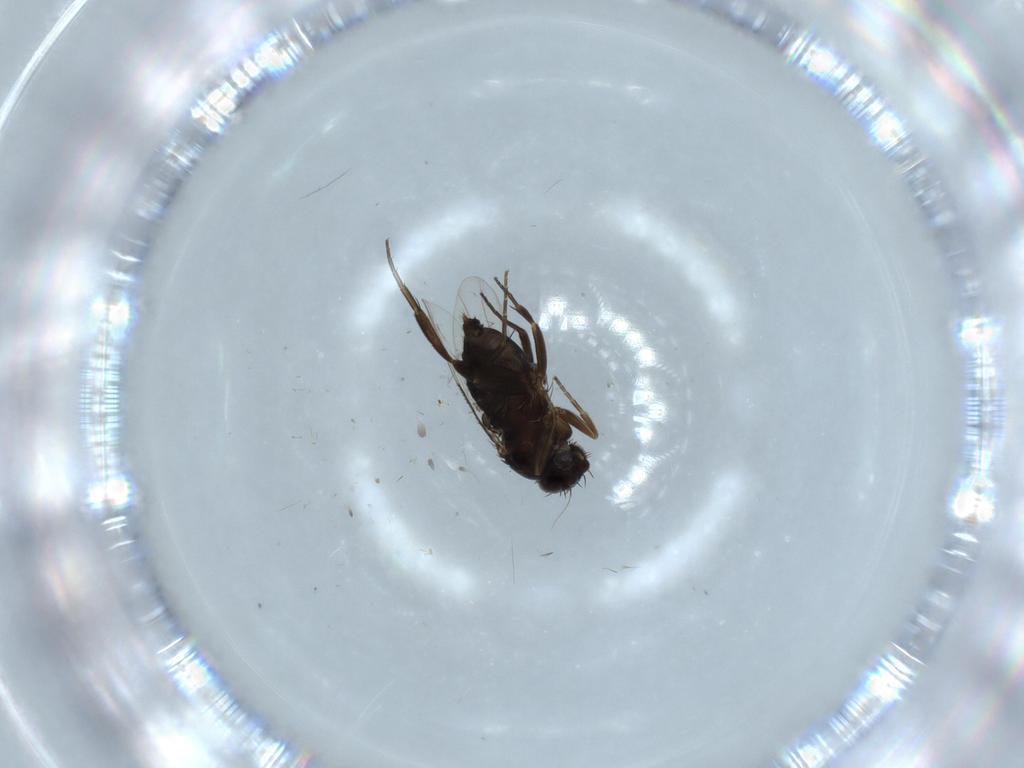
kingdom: Animalia
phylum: Arthropoda
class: Insecta
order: Diptera
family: Phoridae
